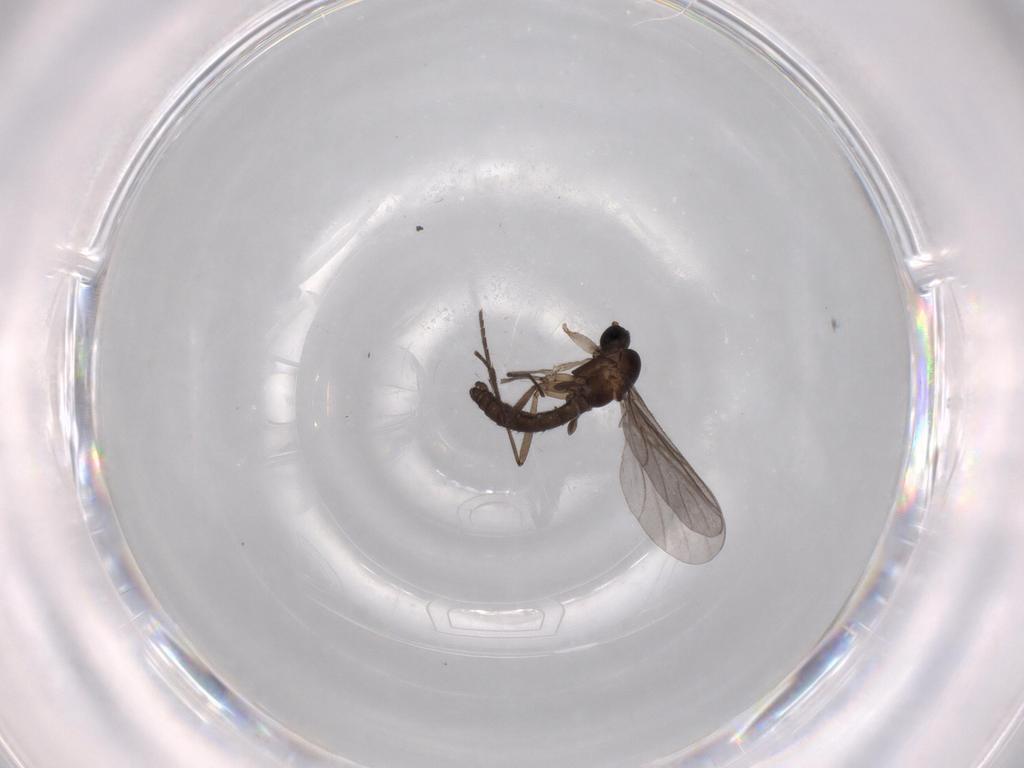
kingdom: Animalia
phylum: Arthropoda
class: Insecta
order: Diptera
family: Sciaridae
